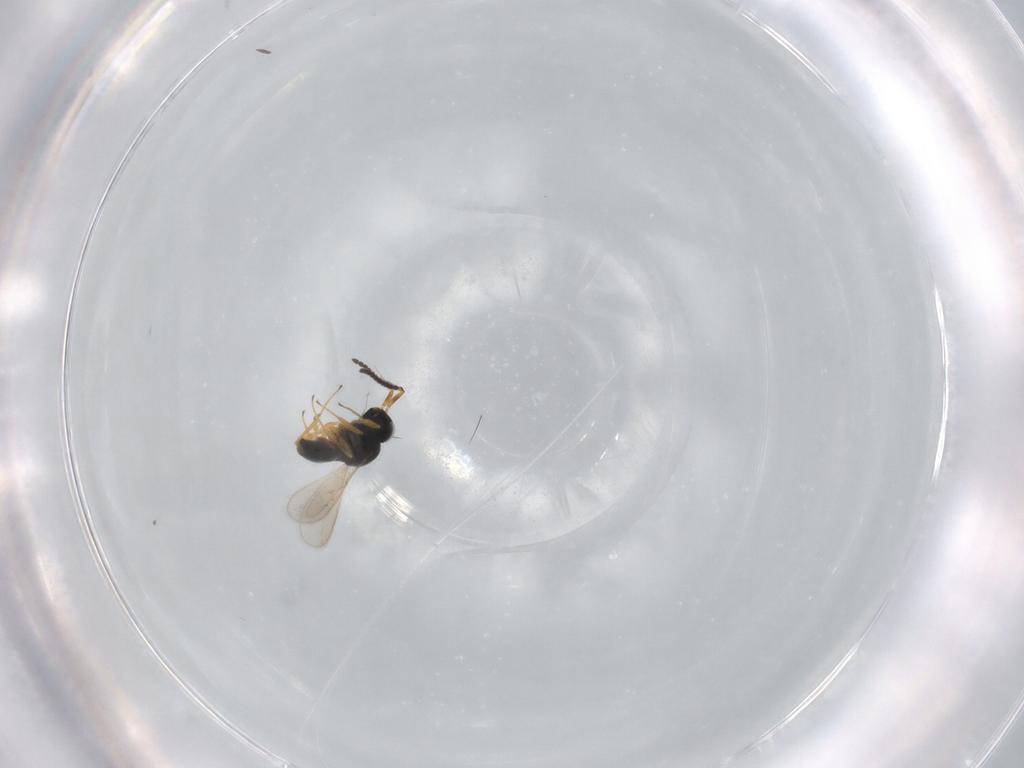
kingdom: Animalia
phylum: Arthropoda
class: Insecta
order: Hymenoptera
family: Scelionidae
